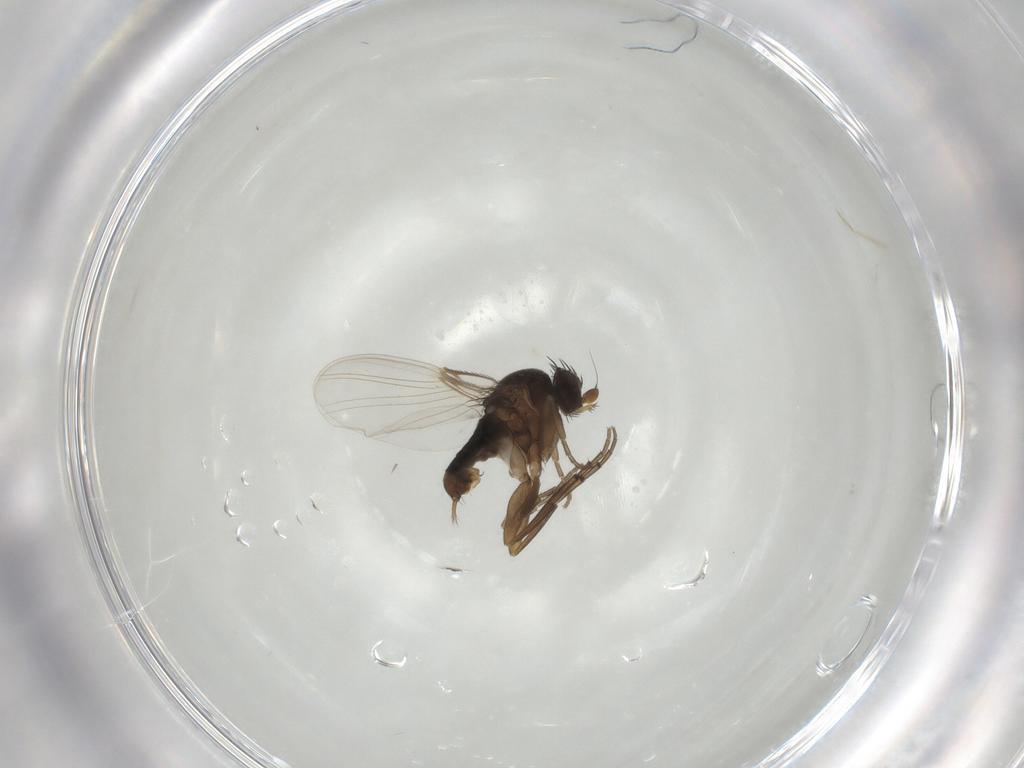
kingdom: Animalia
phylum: Arthropoda
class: Insecta
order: Diptera
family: Phoridae
